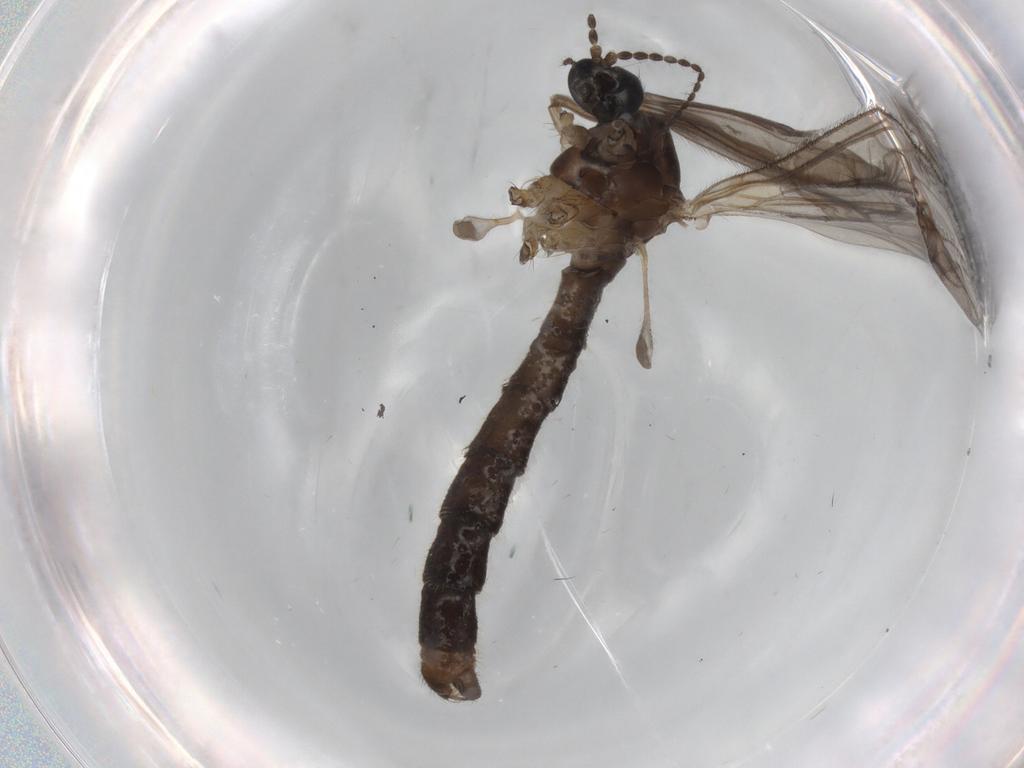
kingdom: Animalia
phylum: Arthropoda
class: Insecta
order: Diptera
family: Limoniidae
